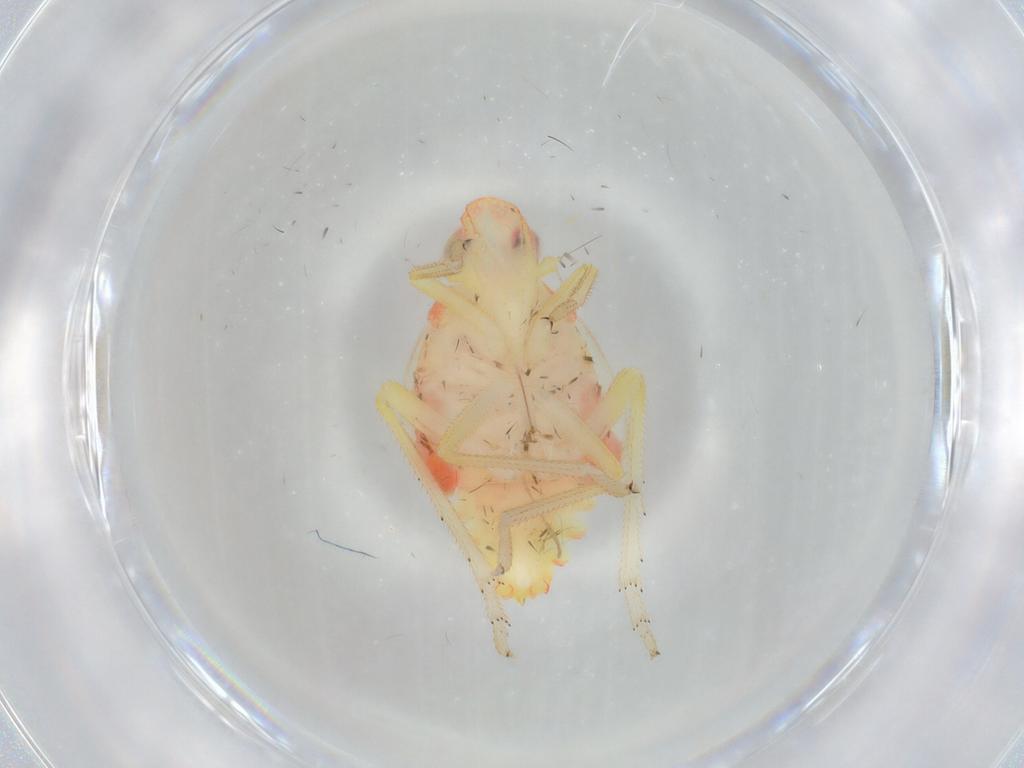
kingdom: Animalia
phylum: Arthropoda
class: Insecta
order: Hemiptera
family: Tropiduchidae
